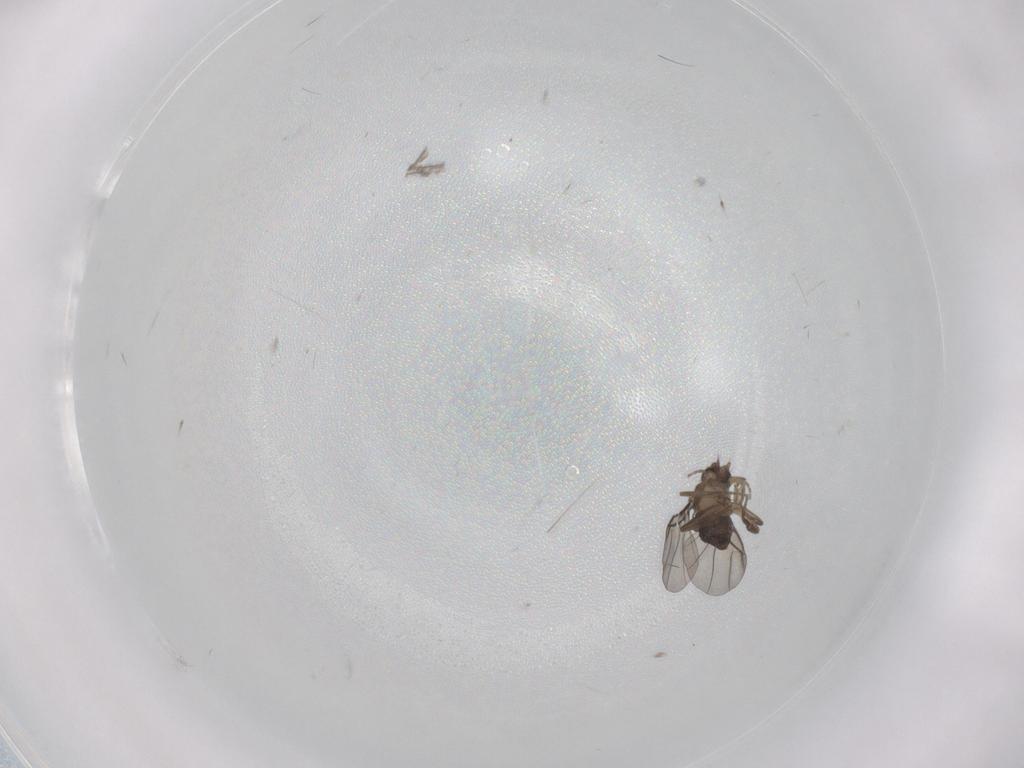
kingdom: Animalia
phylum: Arthropoda
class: Insecta
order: Diptera
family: Phoridae
